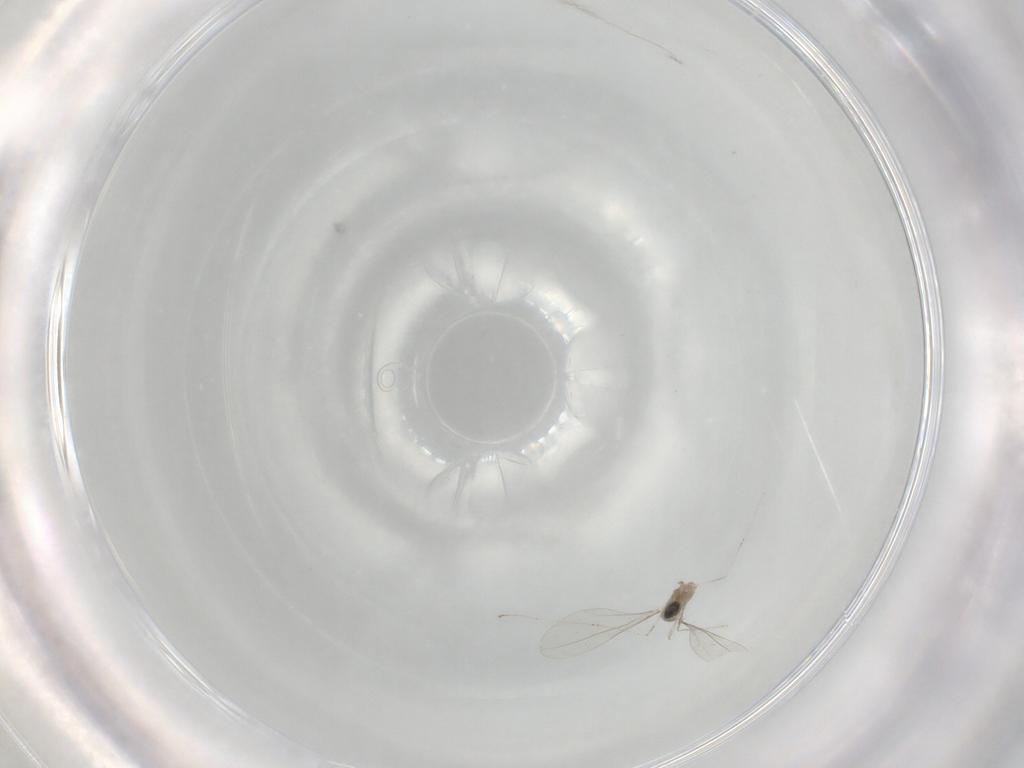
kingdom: Animalia
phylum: Arthropoda
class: Insecta
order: Diptera
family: Cecidomyiidae
